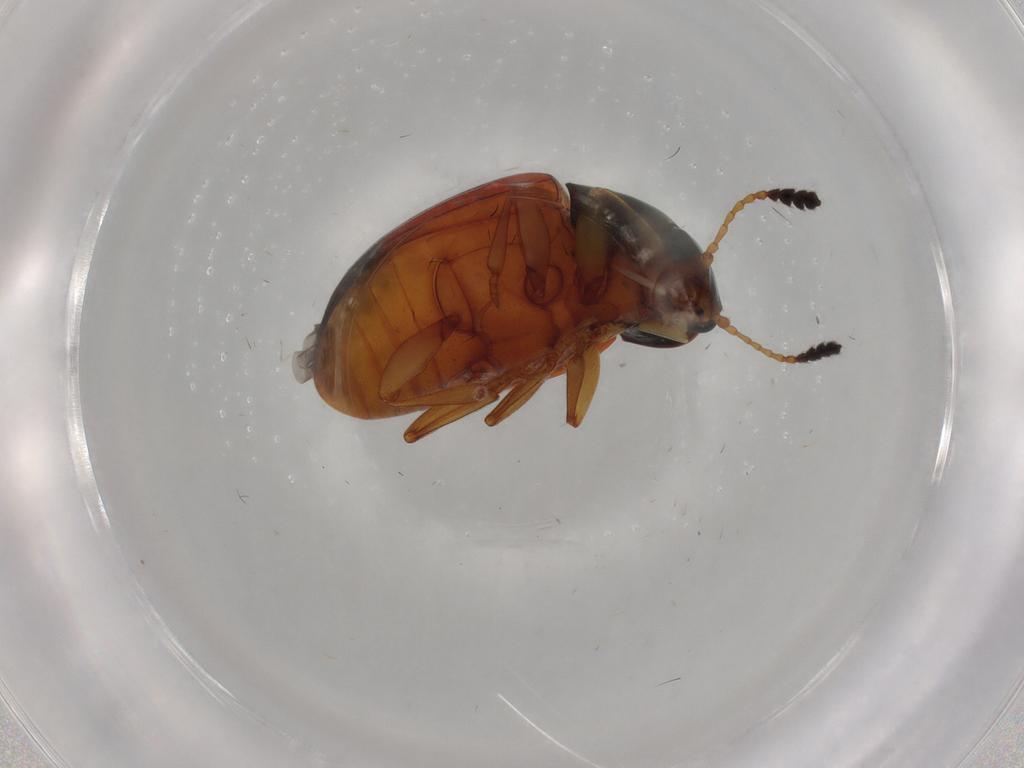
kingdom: Animalia
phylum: Arthropoda
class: Insecta
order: Coleoptera
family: Erotylidae
